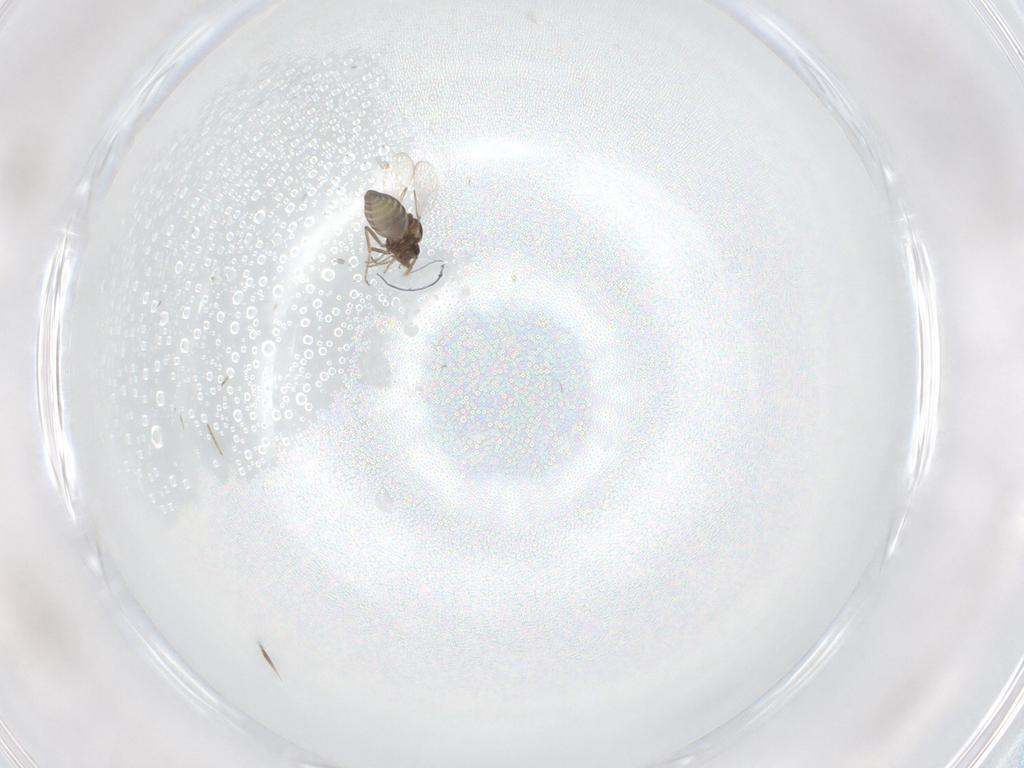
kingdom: Animalia
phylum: Arthropoda
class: Insecta
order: Diptera
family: Ceratopogonidae
